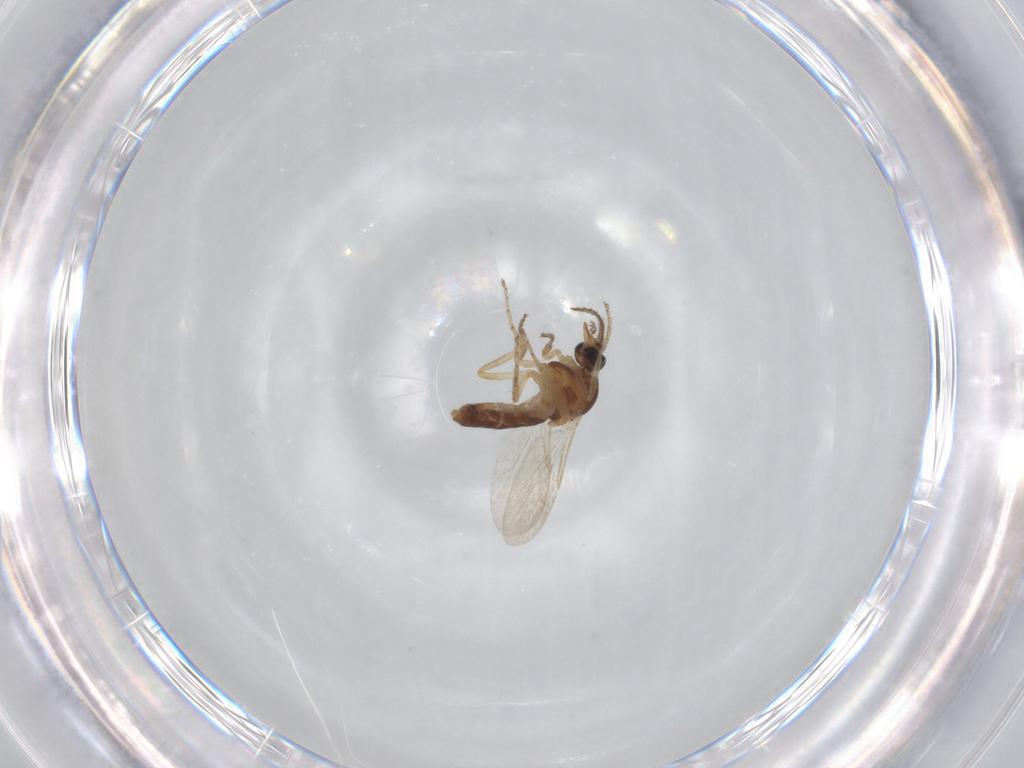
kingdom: Animalia
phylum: Arthropoda
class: Insecta
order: Diptera
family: Ceratopogonidae
